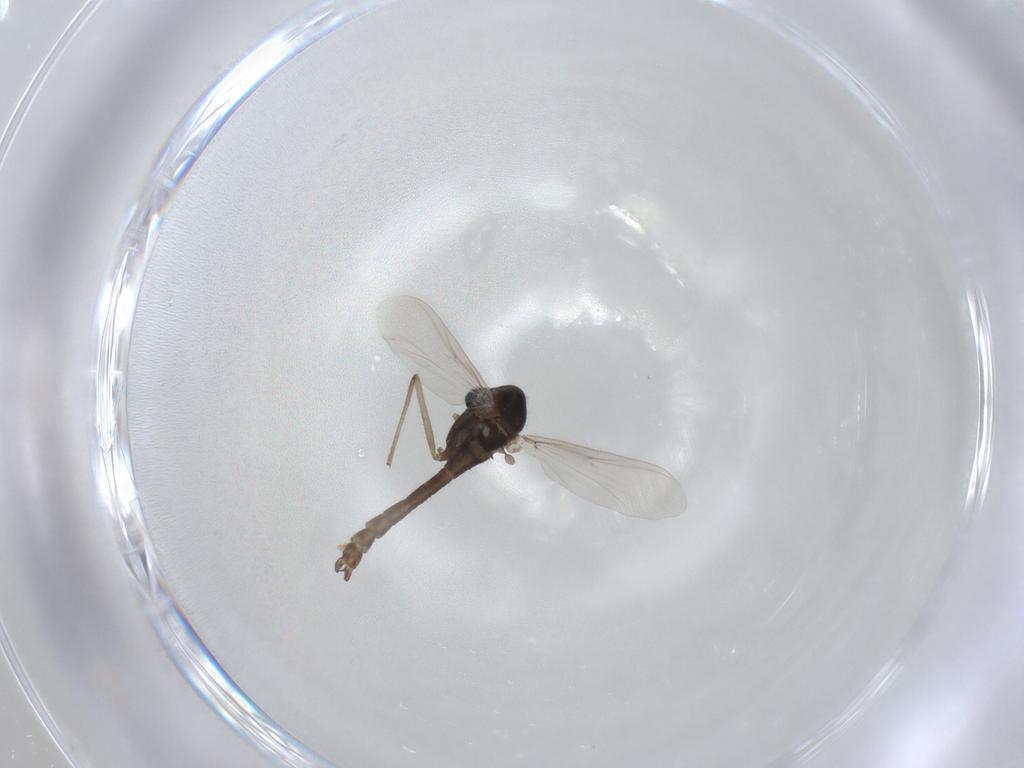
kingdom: Animalia
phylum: Arthropoda
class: Insecta
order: Diptera
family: Chironomidae
